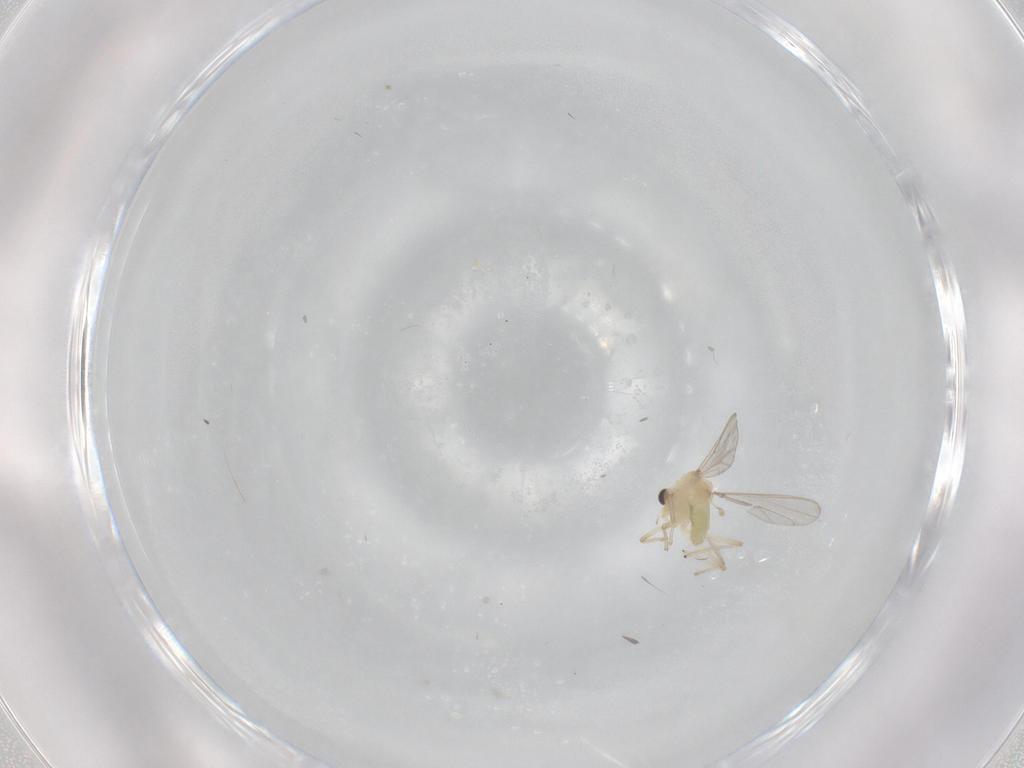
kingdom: Animalia
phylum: Arthropoda
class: Insecta
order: Diptera
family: Chironomidae
